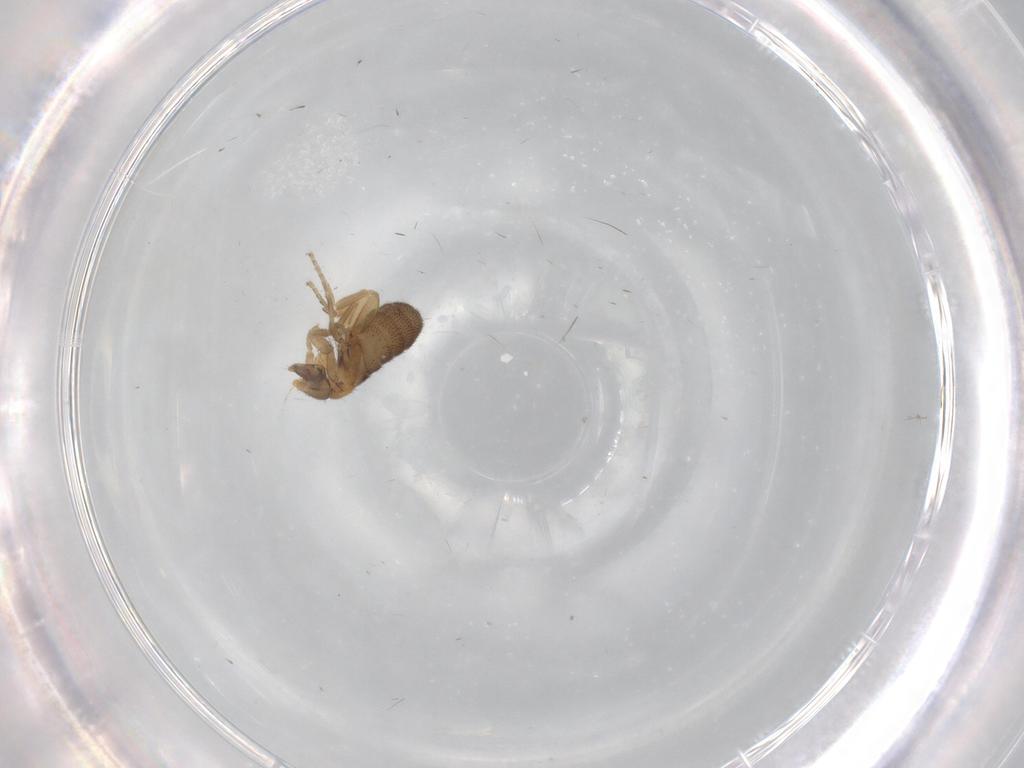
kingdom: Animalia
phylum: Arthropoda
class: Insecta
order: Diptera
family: Phoridae
